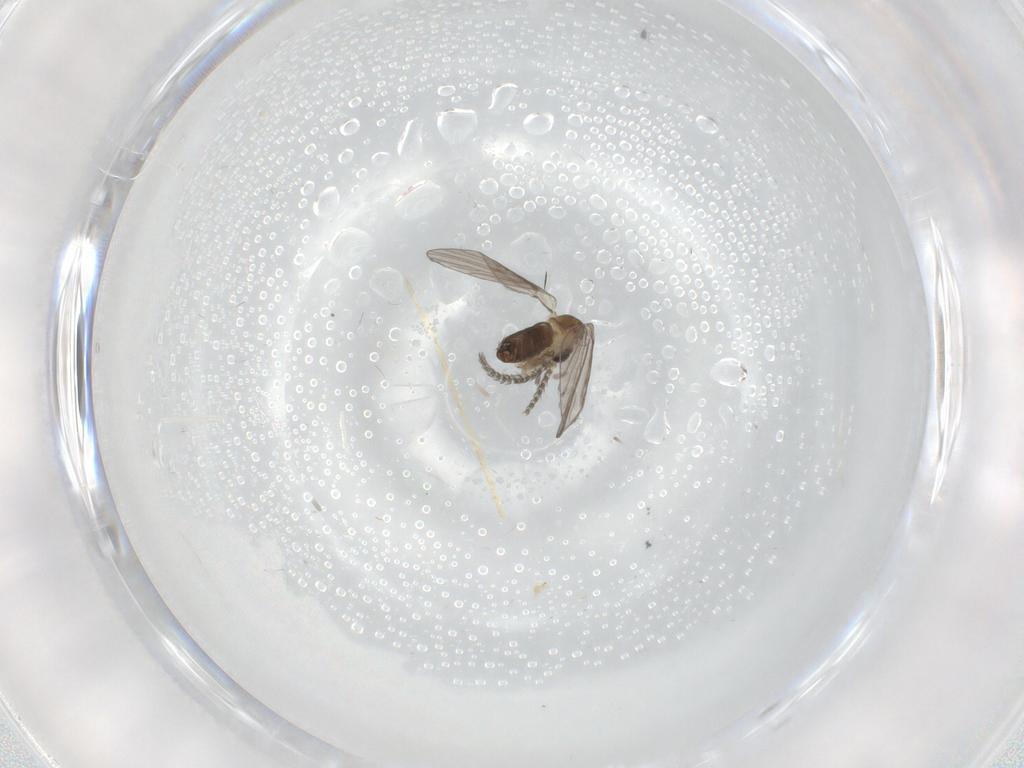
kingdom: Animalia
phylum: Arthropoda
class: Insecta
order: Diptera
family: Psychodidae
